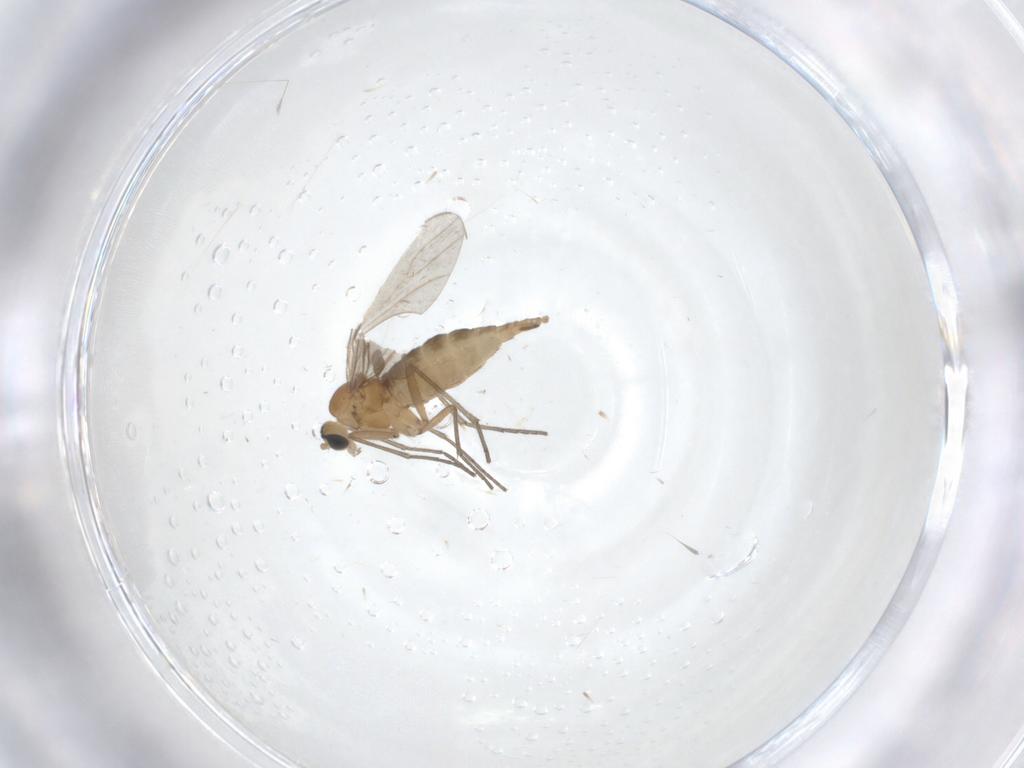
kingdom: Animalia
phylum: Arthropoda
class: Insecta
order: Diptera
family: Sciaridae
